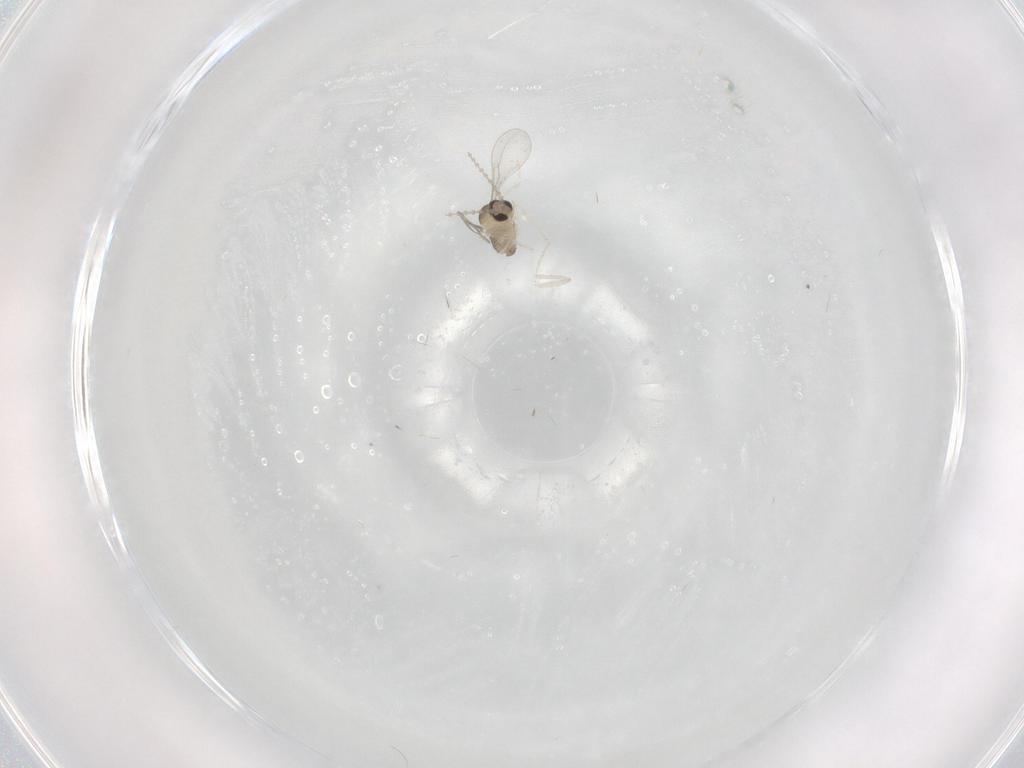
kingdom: Animalia
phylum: Arthropoda
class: Insecta
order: Diptera
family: Cecidomyiidae
